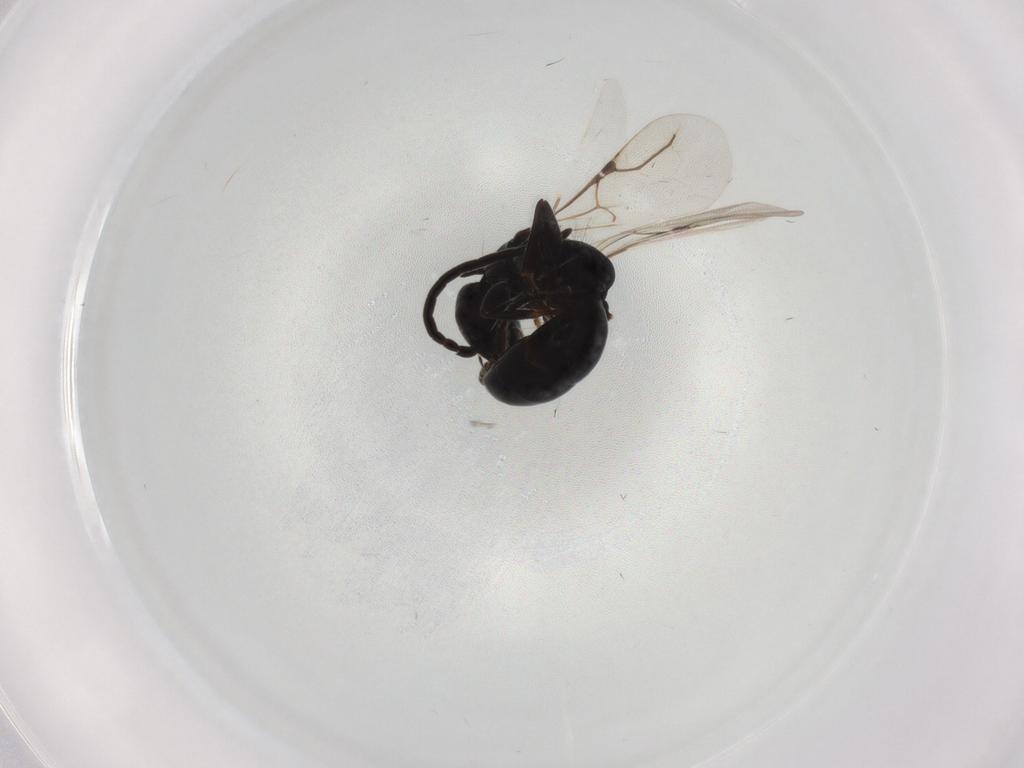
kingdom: Animalia
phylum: Arthropoda
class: Insecta
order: Hymenoptera
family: Bethylidae
